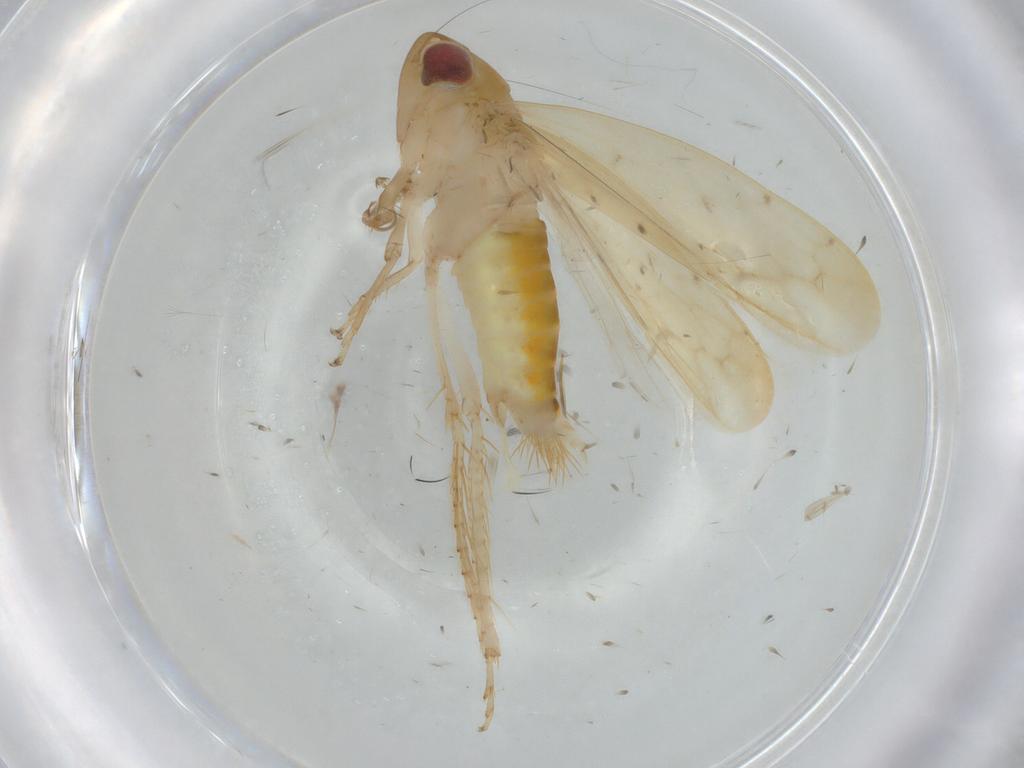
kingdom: Animalia
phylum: Arthropoda
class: Insecta
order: Hemiptera
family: Cicadellidae
